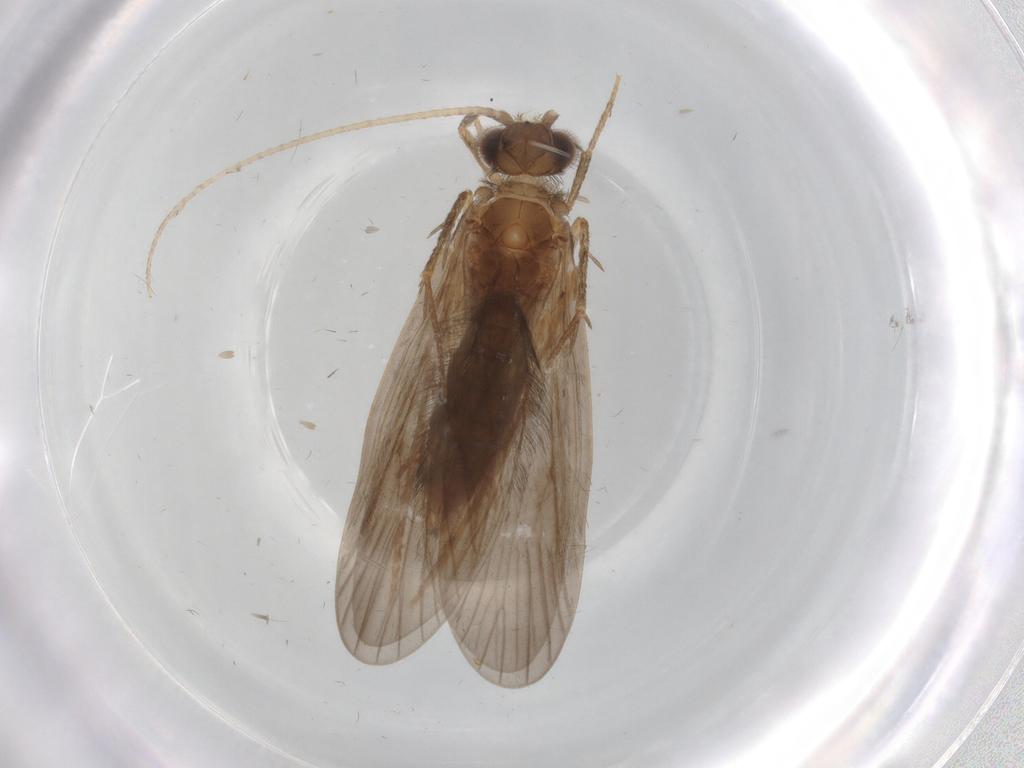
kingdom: Animalia
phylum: Arthropoda
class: Insecta
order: Trichoptera
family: Philopotamidae
